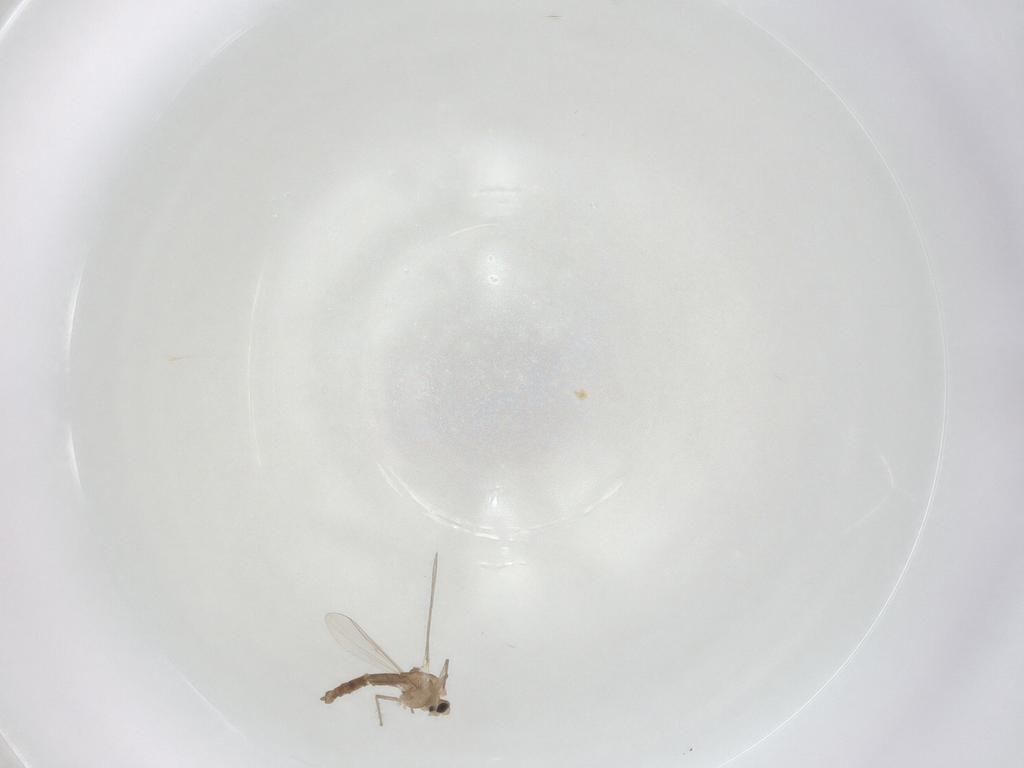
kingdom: Animalia
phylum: Arthropoda
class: Insecta
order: Diptera
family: Chironomidae
